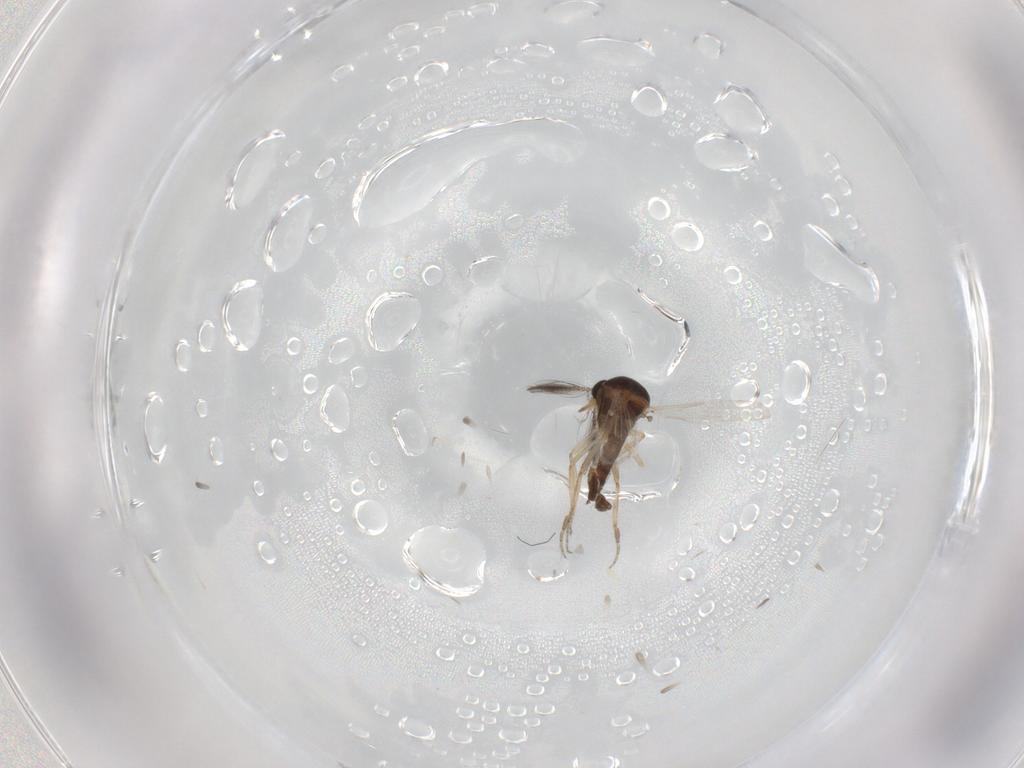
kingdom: Animalia
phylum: Arthropoda
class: Insecta
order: Diptera
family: Ceratopogonidae
